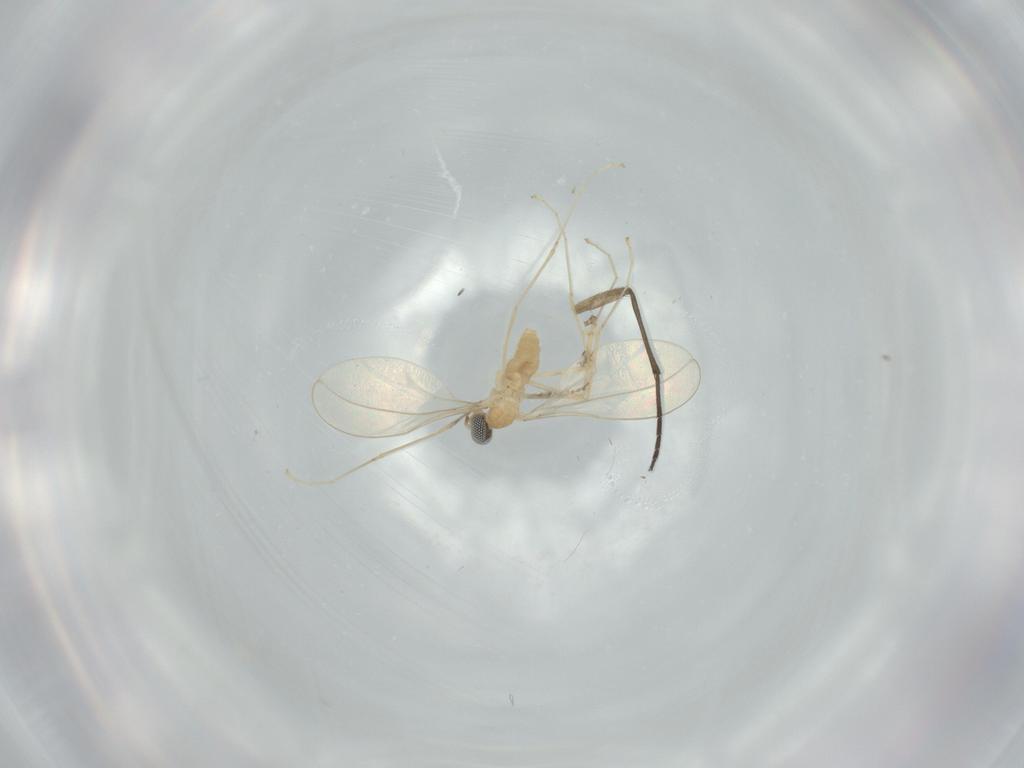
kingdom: Animalia
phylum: Arthropoda
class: Insecta
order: Diptera
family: Cecidomyiidae
